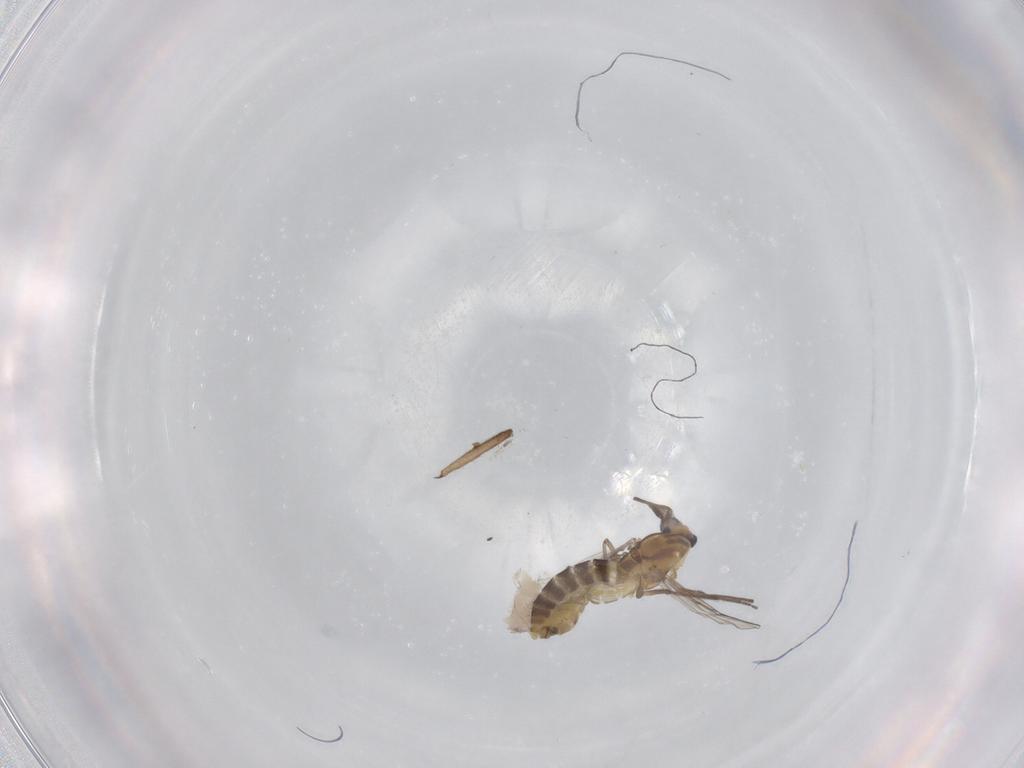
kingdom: Animalia
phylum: Arthropoda
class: Insecta
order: Diptera
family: Chironomidae
